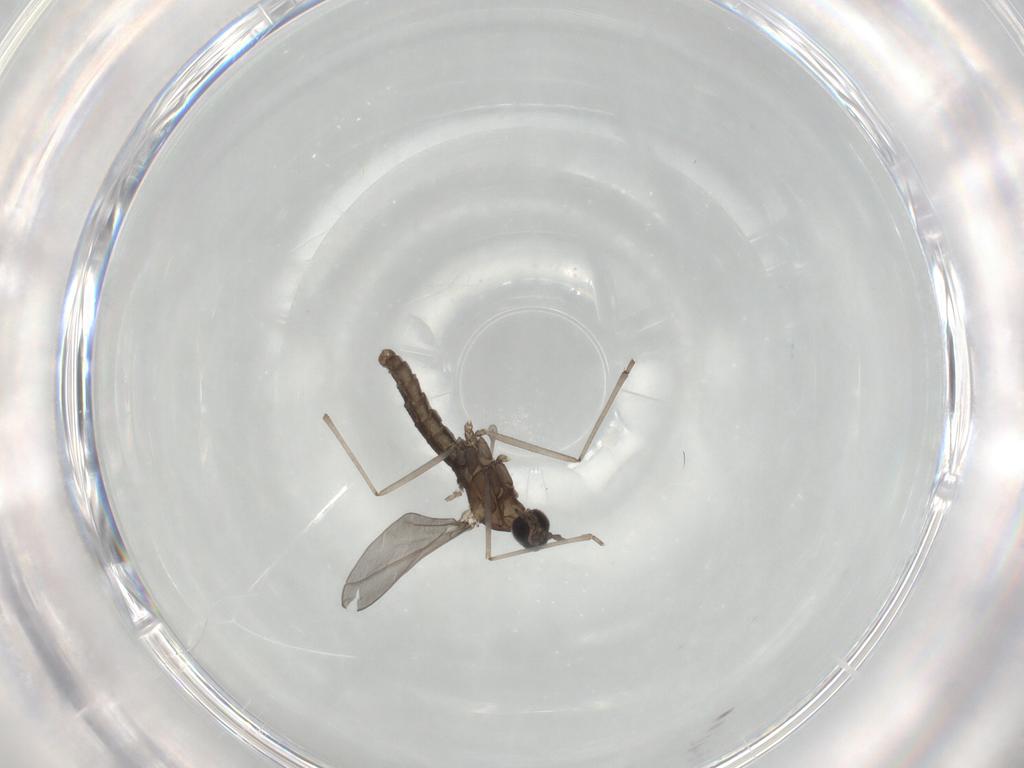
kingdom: Animalia
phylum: Arthropoda
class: Insecta
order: Diptera
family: Cecidomyiidae
